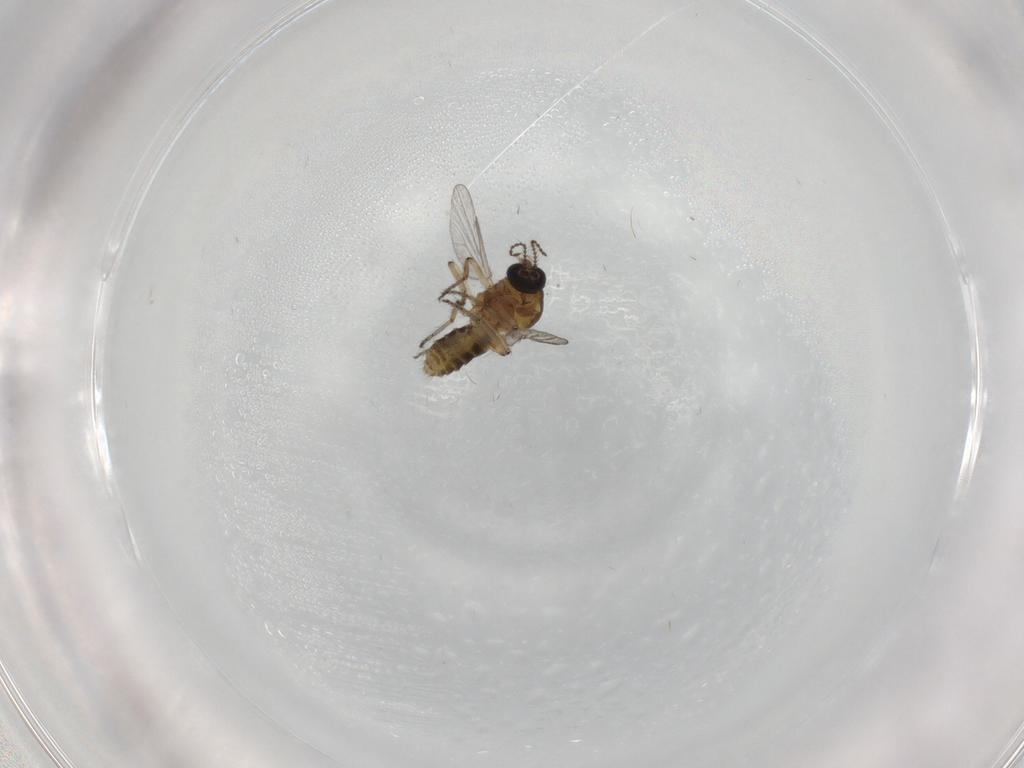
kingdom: Animalia
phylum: Arthropoda
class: Insecta
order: Diptera
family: Ceratopogonidae
